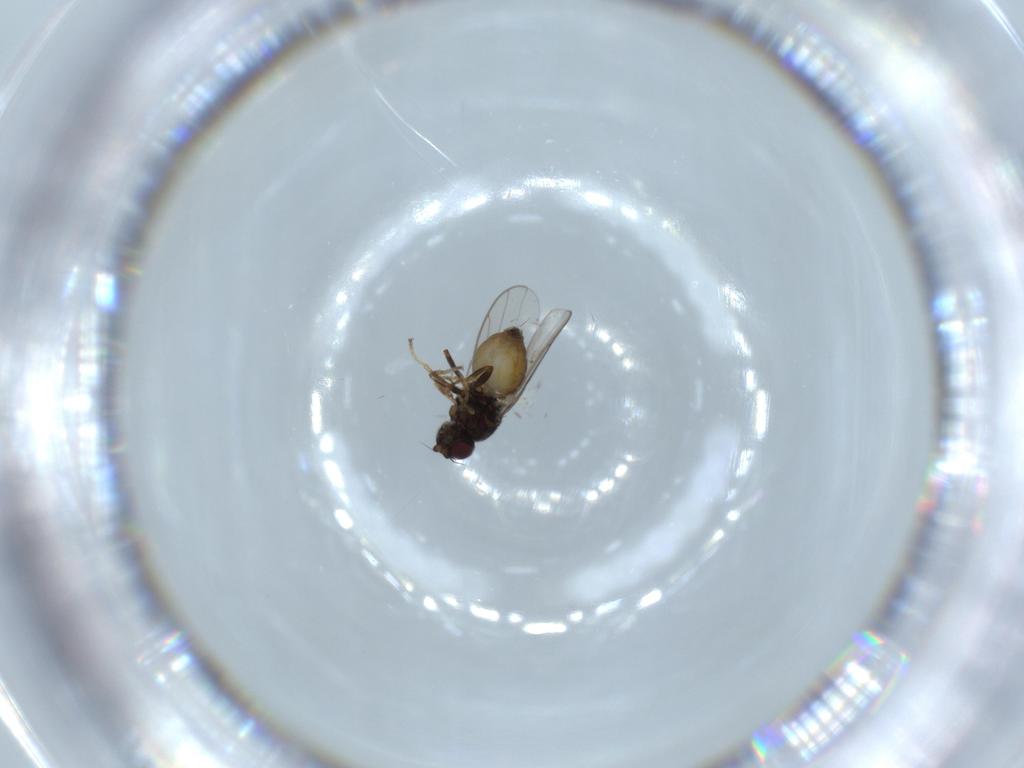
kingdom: Animalia
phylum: Arthropoda
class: Insecta
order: Diptera
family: Chloropidae
